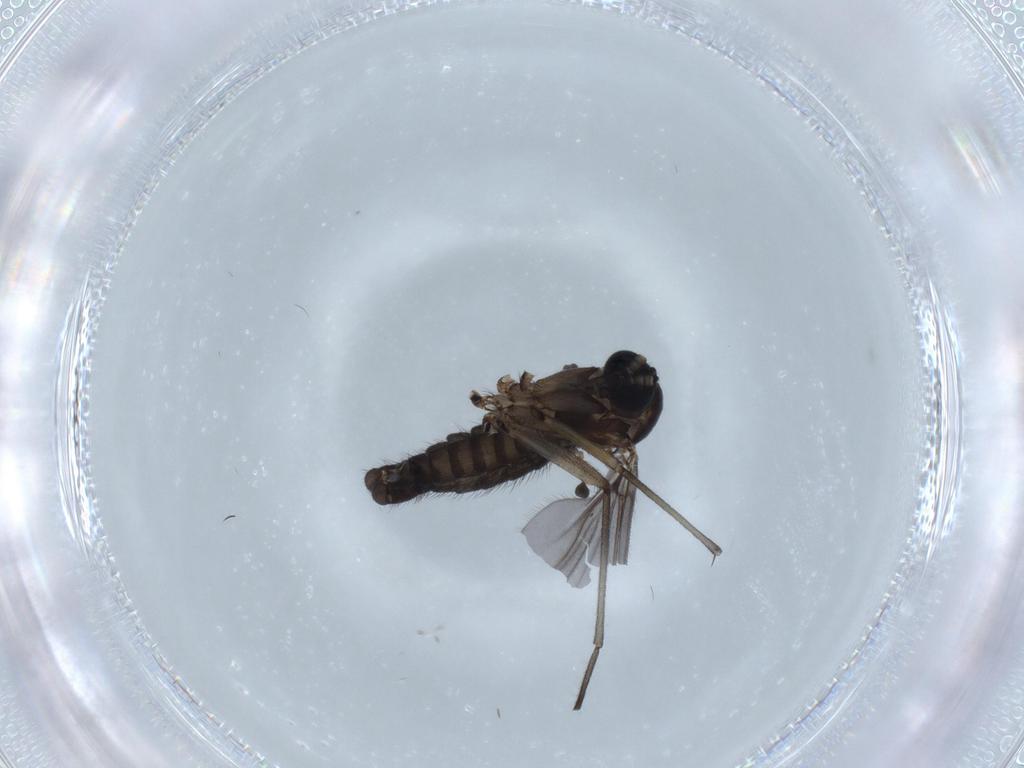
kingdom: Animalia
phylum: Arthropoda
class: Insecta
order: Diptera
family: Sciaridae
